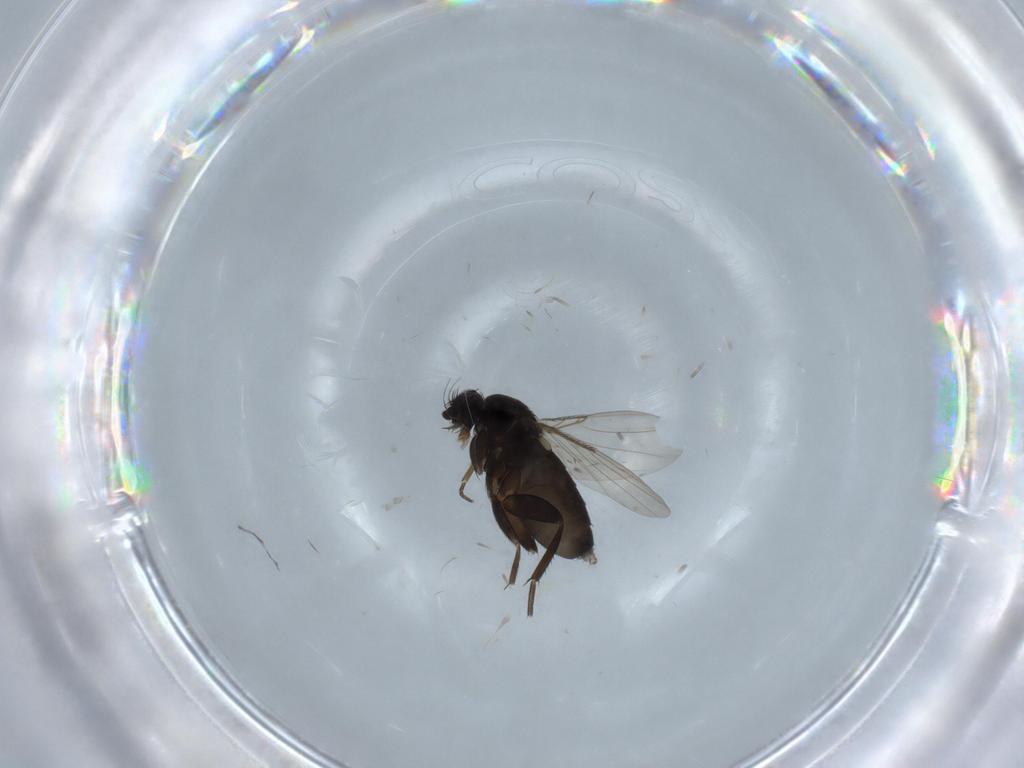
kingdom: Animalia
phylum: Arthropoda
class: Insecta
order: Diptera
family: Phoridae
